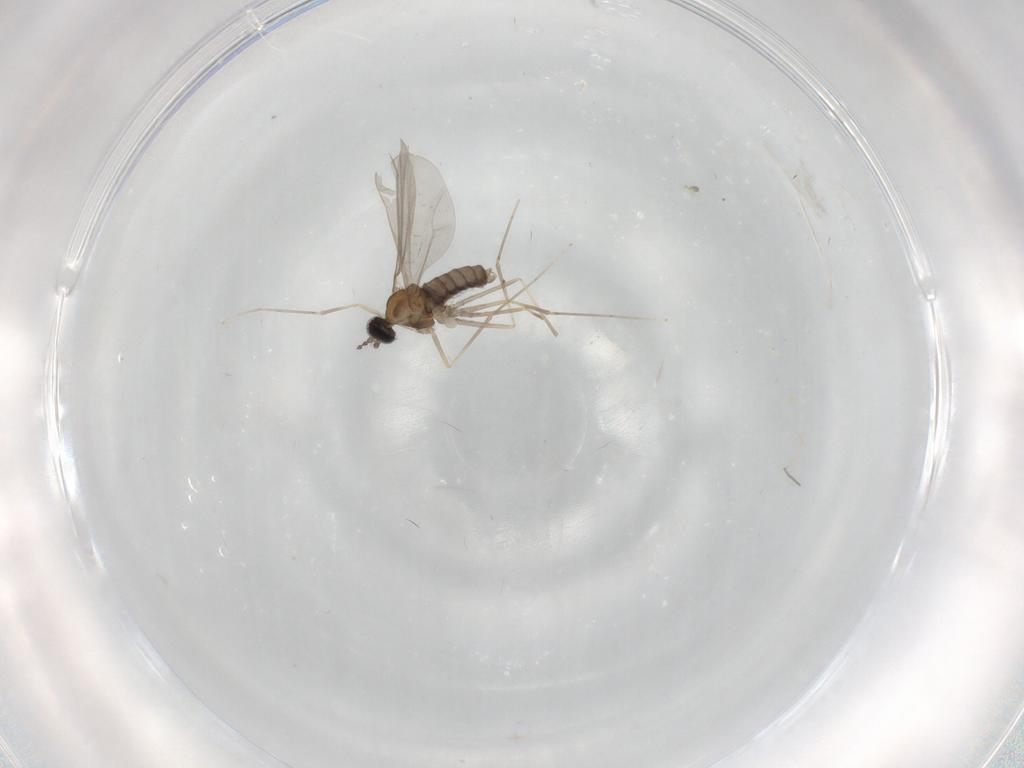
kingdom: Animalia
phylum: Arthropoda
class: Insecta
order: Diptera
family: Cecidomyiidae
